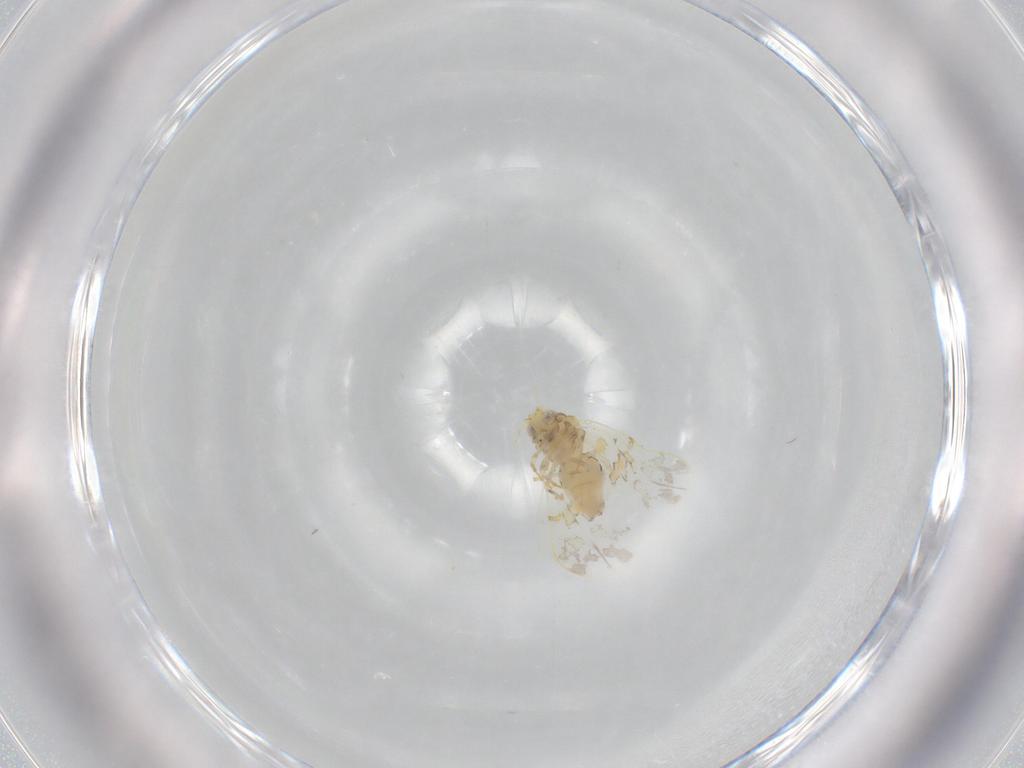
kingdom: Animalia
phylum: Arthropoda
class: Insecta
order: Hemiptera
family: Aleyrodidae
